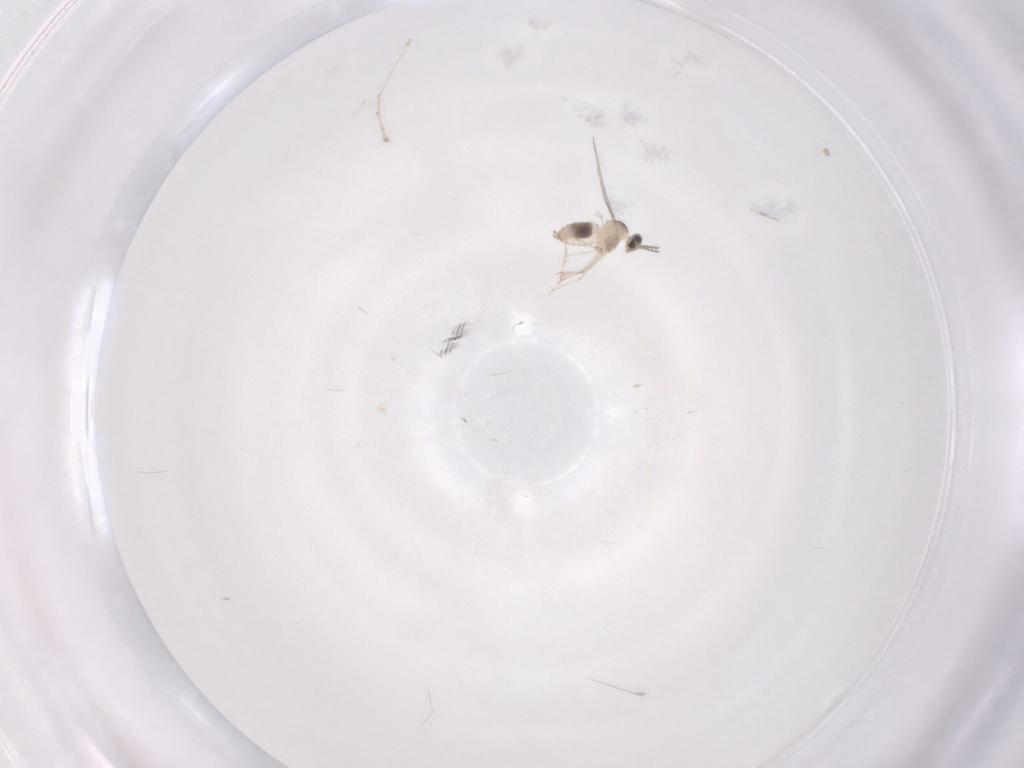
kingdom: Animalia
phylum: Arthropoda
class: Insecta
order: Diptera
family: Cecidomyiidae
